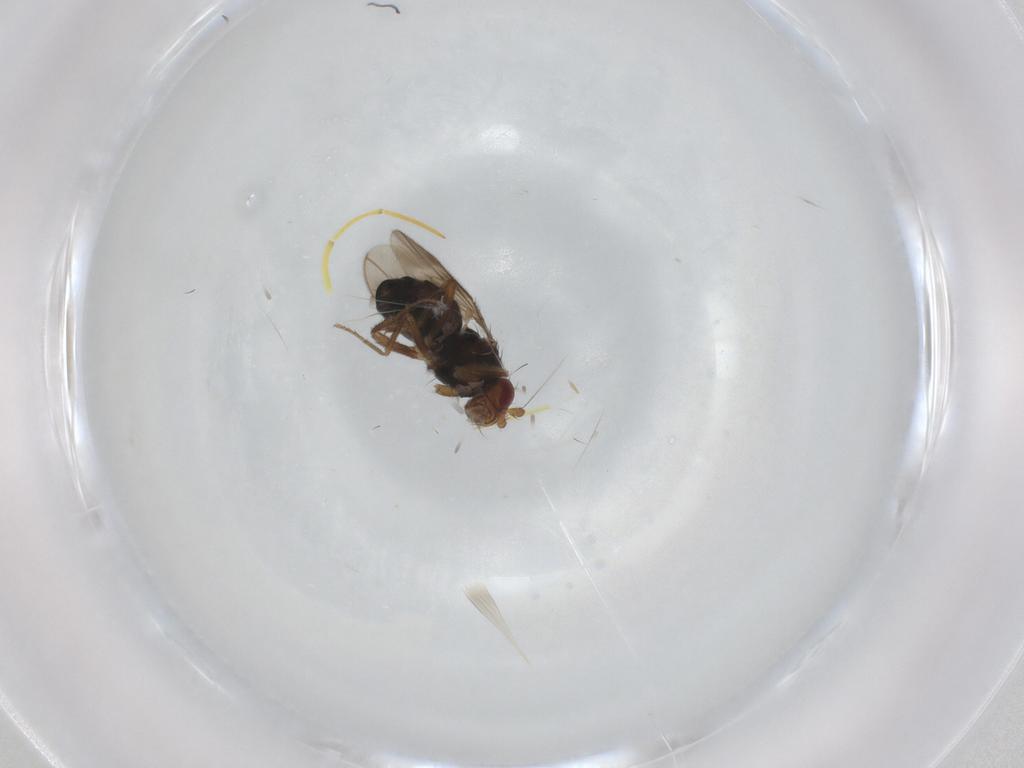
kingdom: Animalia
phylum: Arthropoda
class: Insecta
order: Diptera
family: Sphaeroceridae
